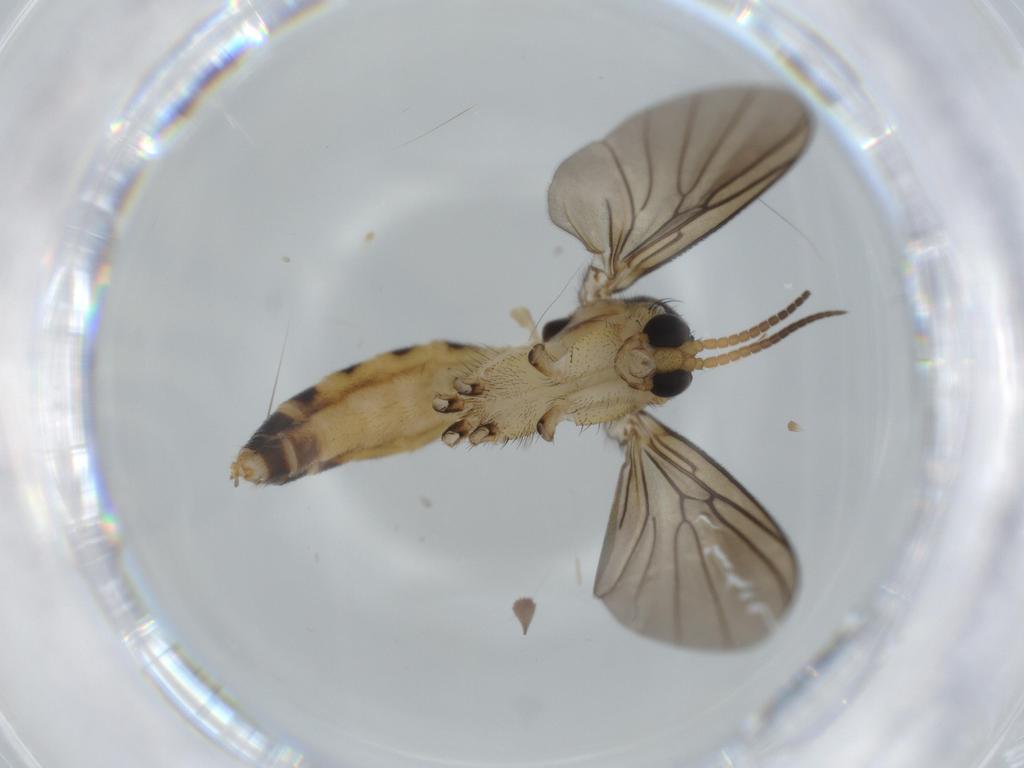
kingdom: Animalia
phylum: Arthropoda
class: Insecta
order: Diptera
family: Chironomidae
